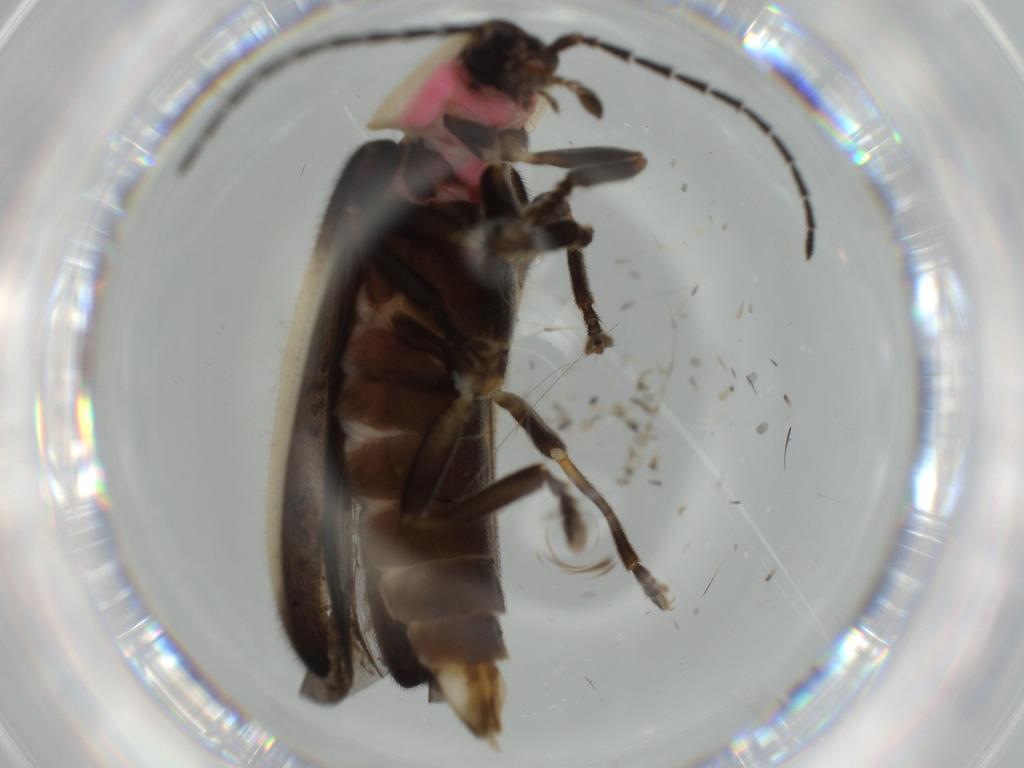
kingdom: Animalia
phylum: Arthropoda
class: Insecta
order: Coleoptera
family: Lampyridae
